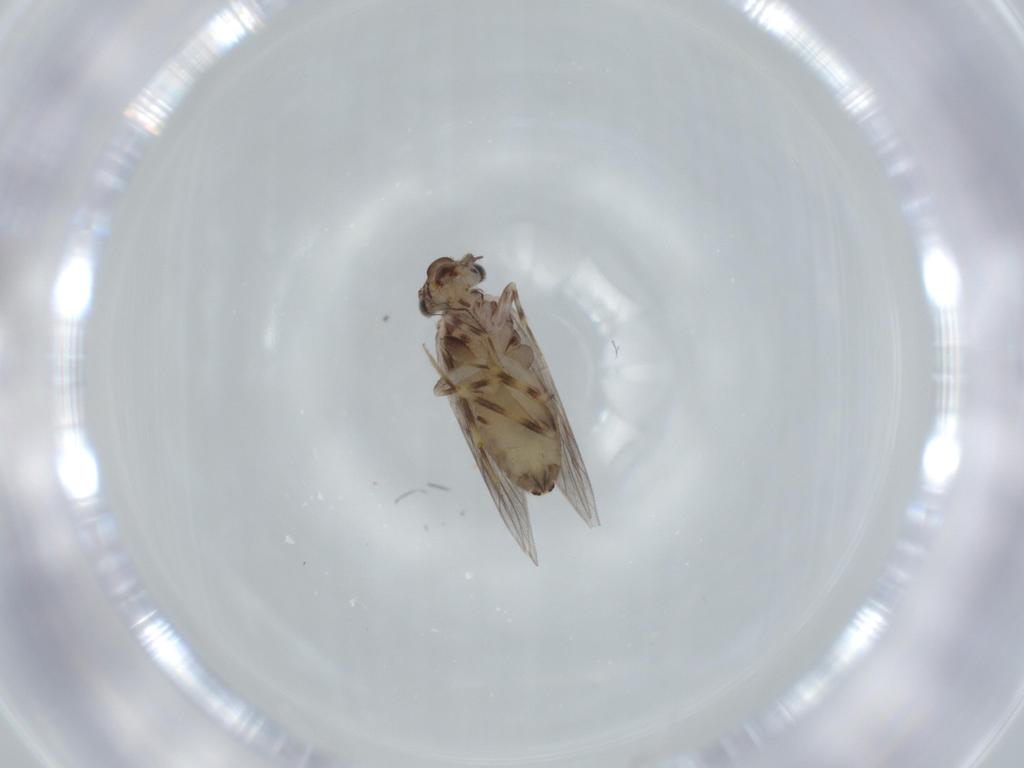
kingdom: Animalia
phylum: Arthropoda
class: Insecta
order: Psocodea
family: Lepidopsocidae
